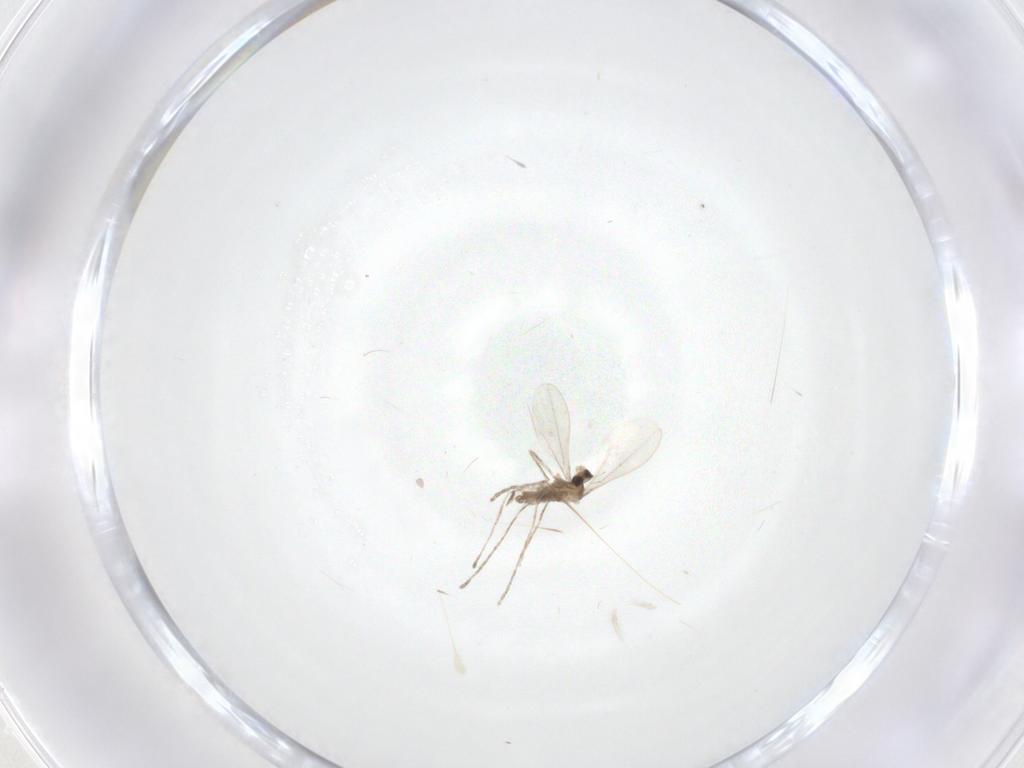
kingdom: Animalia
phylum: Arthropoda
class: Insecta
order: Diptera
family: Cecidomyiidae
